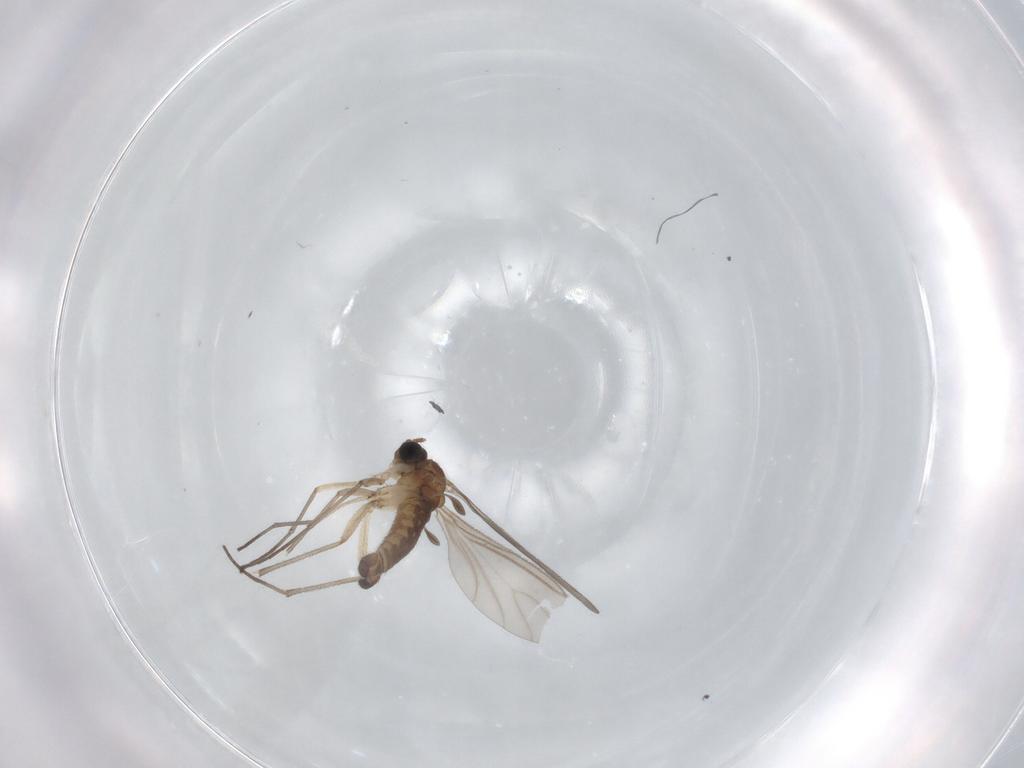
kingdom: Animalia
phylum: Arthropoda
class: Insecta
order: Diptera
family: Sciaridae
